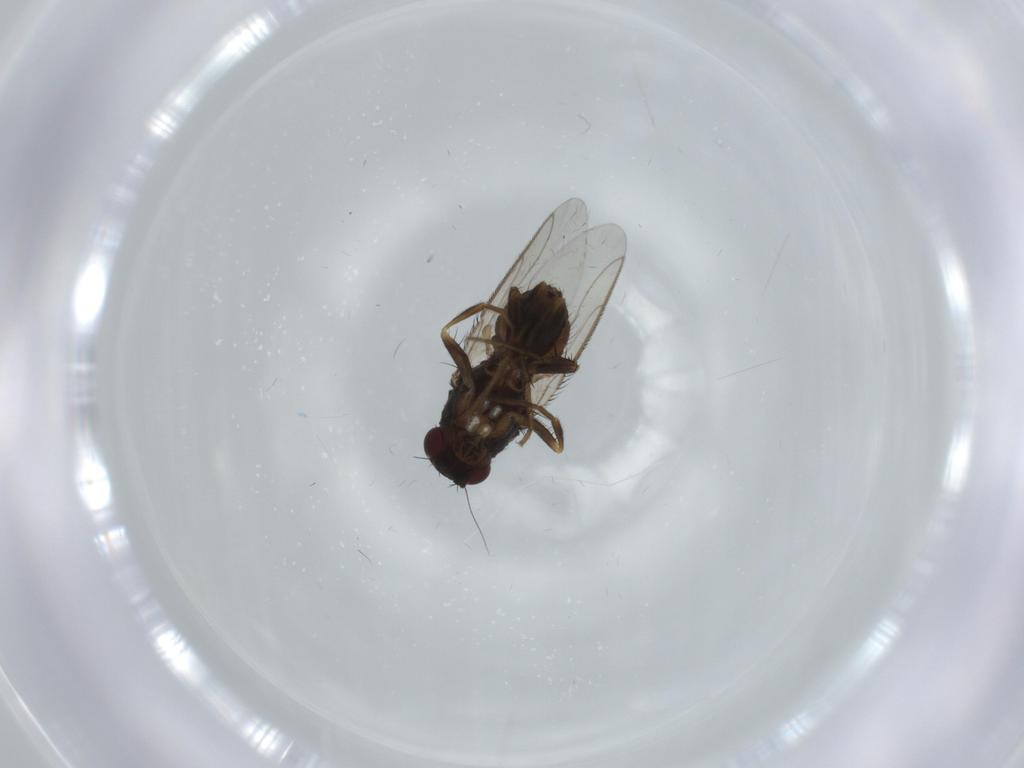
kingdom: Animalia
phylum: Arthropoda
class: Insecta
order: Diptera
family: Sphaeroceridae
